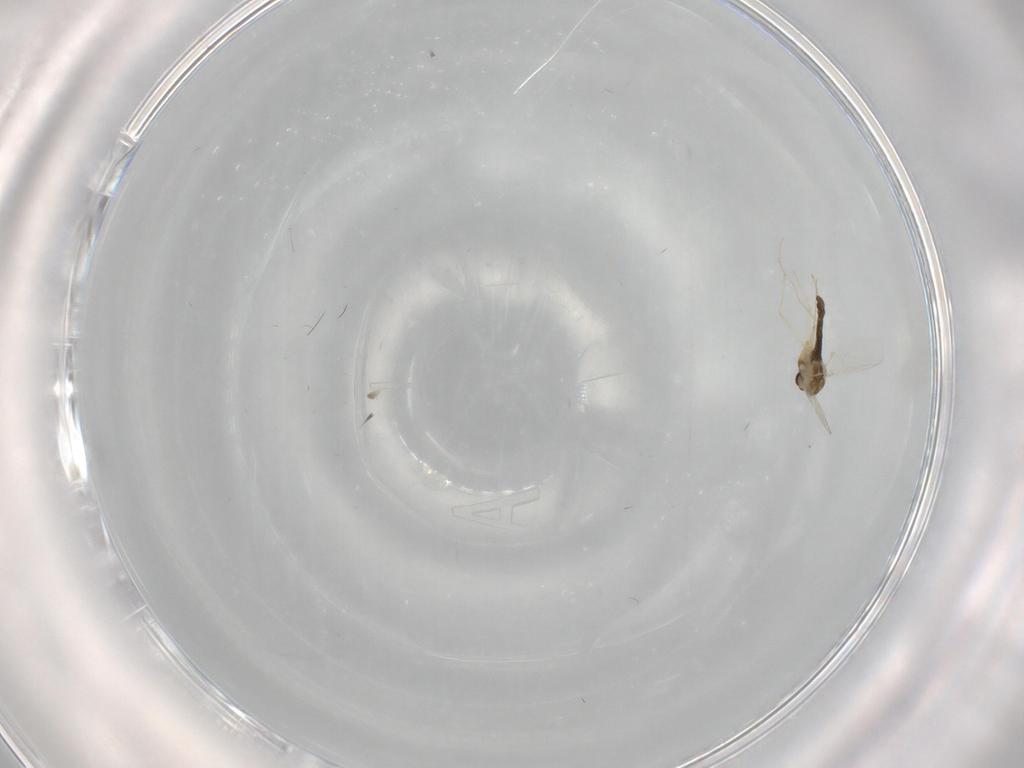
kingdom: Animalia
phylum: Arthropoda
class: Insecta
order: Diptera
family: Chironomidae
